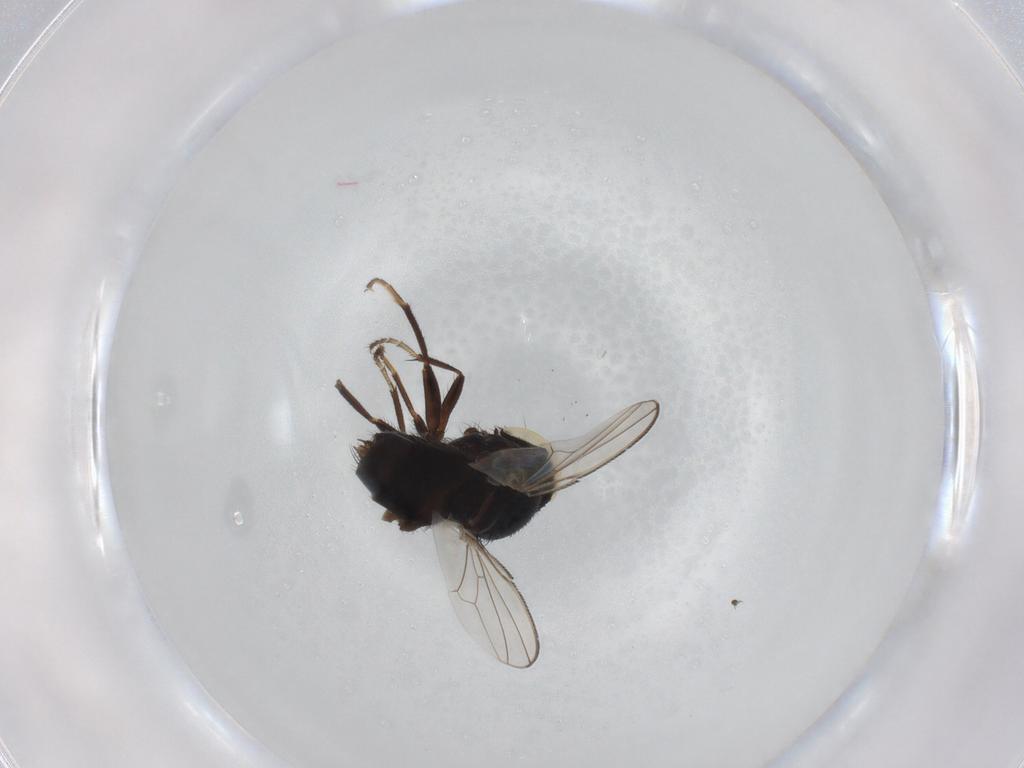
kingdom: Animalia
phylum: Arthropoda
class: Insecta
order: Diptera
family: Milichiidae
